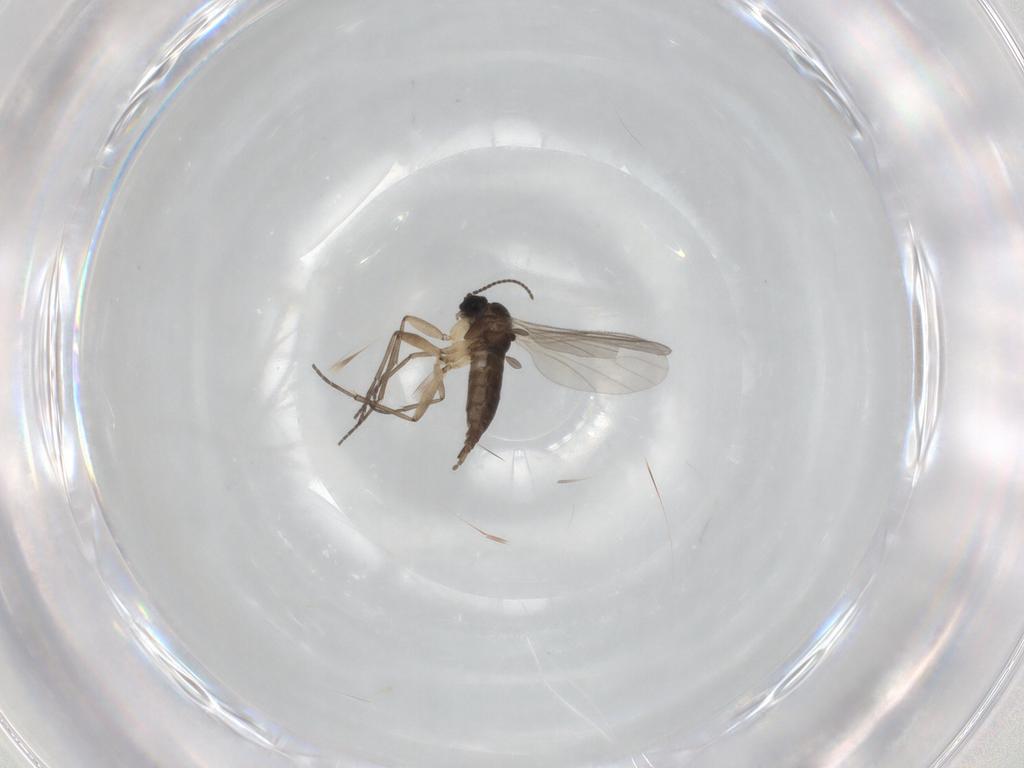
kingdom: Animalia
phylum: Arthropoda
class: Insecta
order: Diptera
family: Sciaridae
